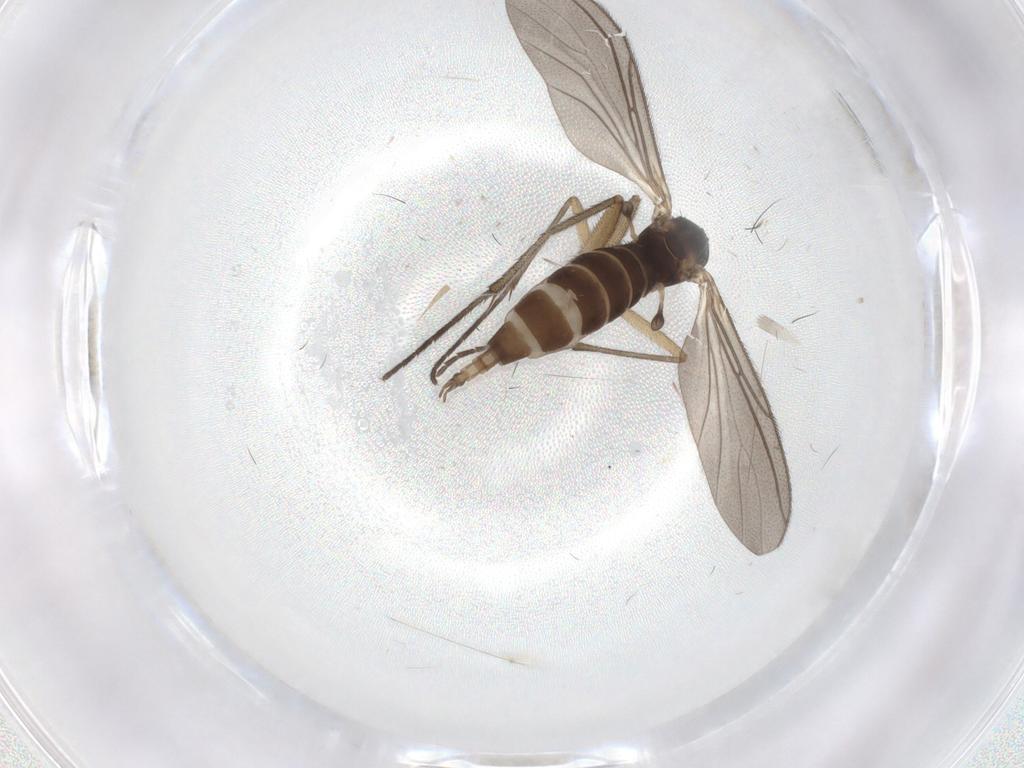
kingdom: Animalia
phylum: Arthropoda
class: Insecta
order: Diptera
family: Sciaridae
